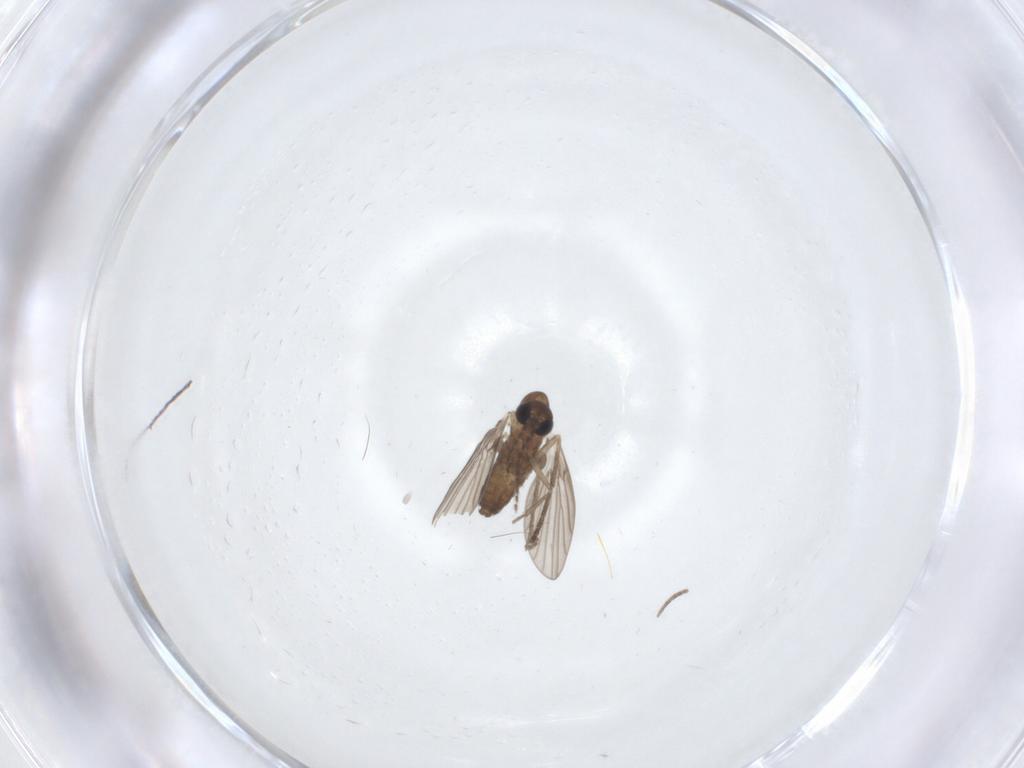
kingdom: Animalia
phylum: Arthropoda
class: Insecta
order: Diptera
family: Psychodidae
